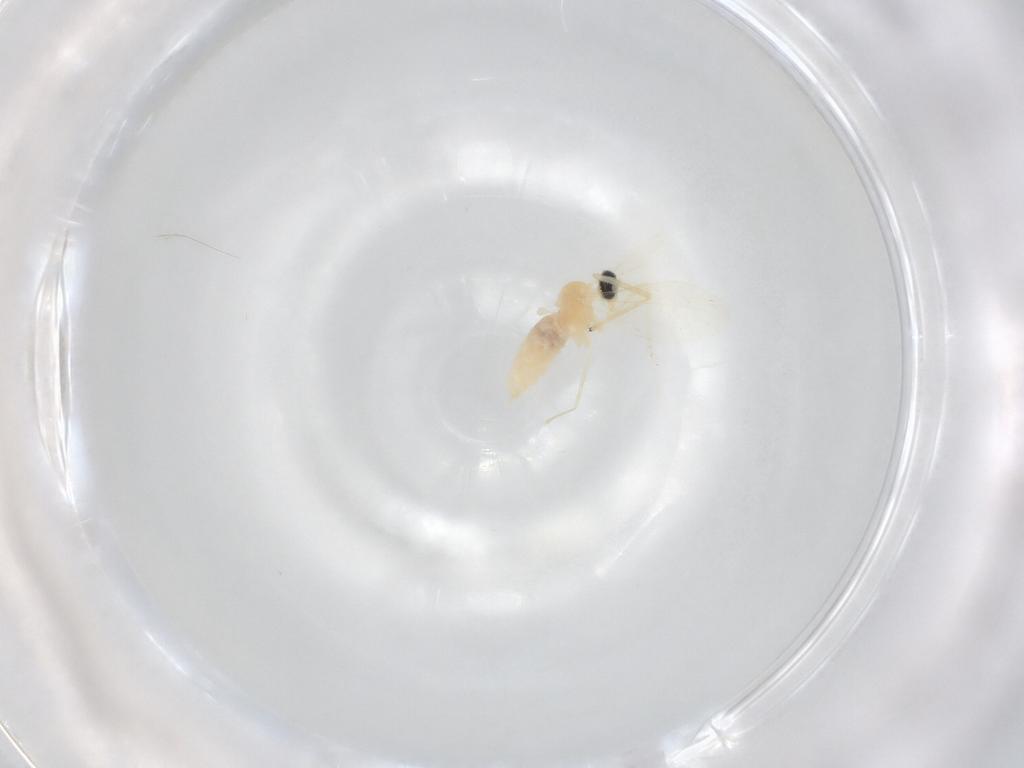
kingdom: Animalia
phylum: Arthropoda
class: Insecta
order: Diptera
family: Cecidomyiidae
